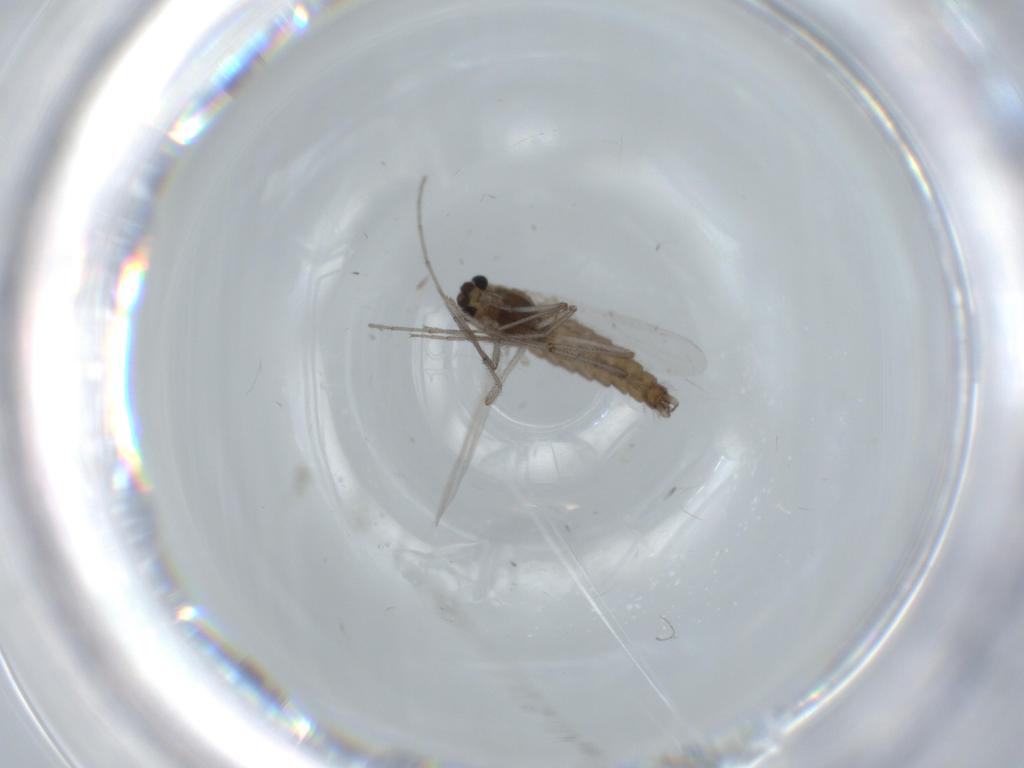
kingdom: Animalia
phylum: Arthropoda
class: Insecta
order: Diptera
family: Chironomidae
